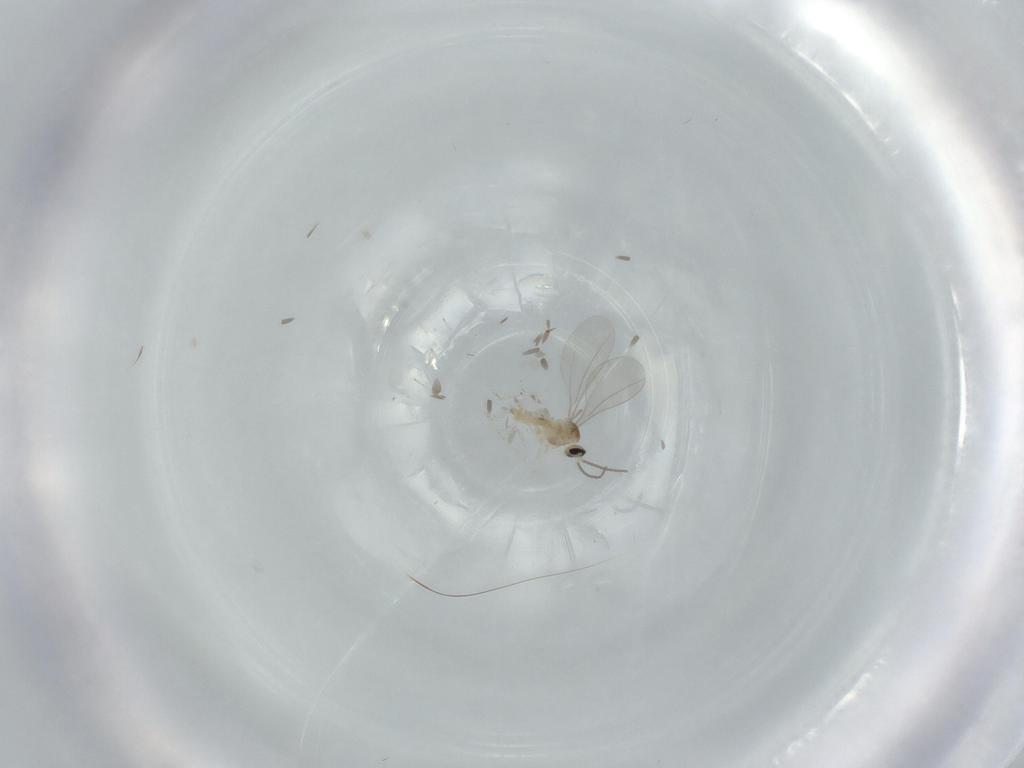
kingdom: Animalia
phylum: Arthropoda
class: Insecta
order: Diptera
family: Cecidomyiidae
